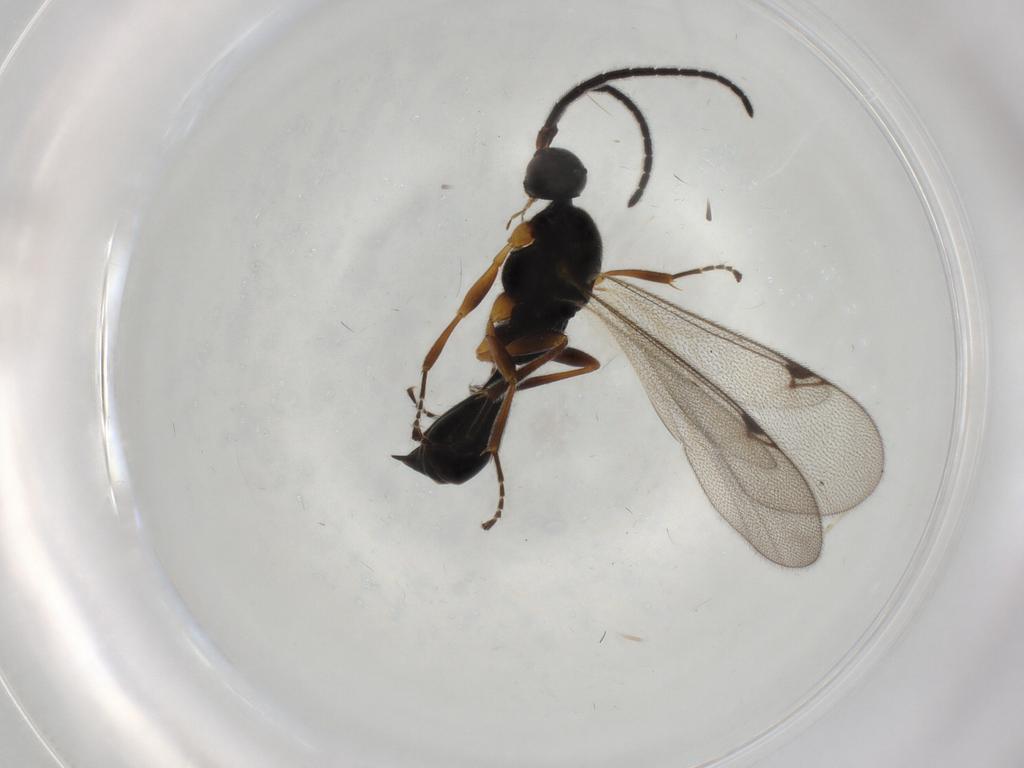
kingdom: Animalia
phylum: Arthropoda
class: Insecta
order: Hymenoptera
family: Proctotrupidae
